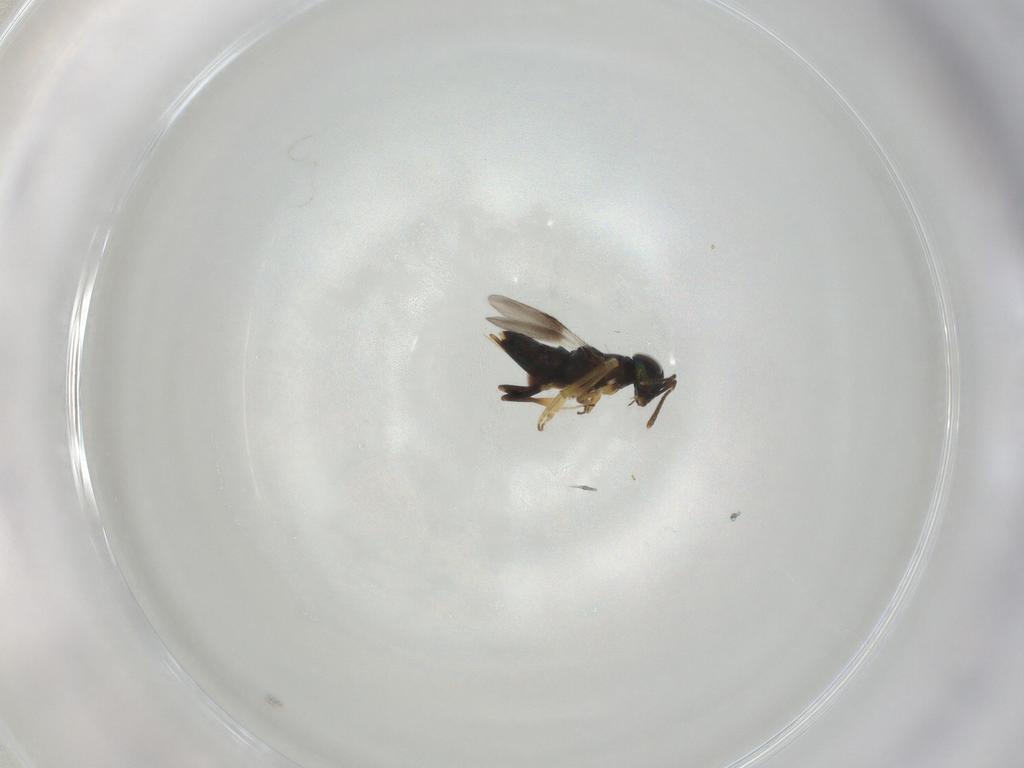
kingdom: Animalia
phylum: Arthropoda
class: Insecta
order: Hymenoptera
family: Encyrtidae
